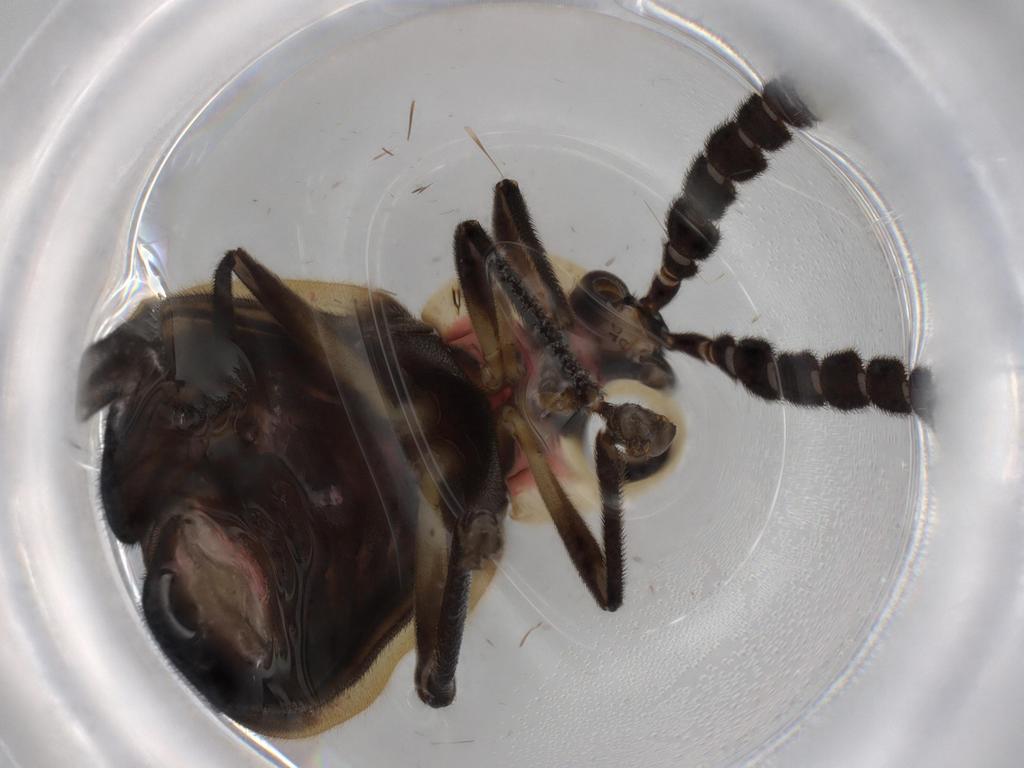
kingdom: Animalia
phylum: Arthropoda
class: Insecta
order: Coleoptera
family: Lampyridae
